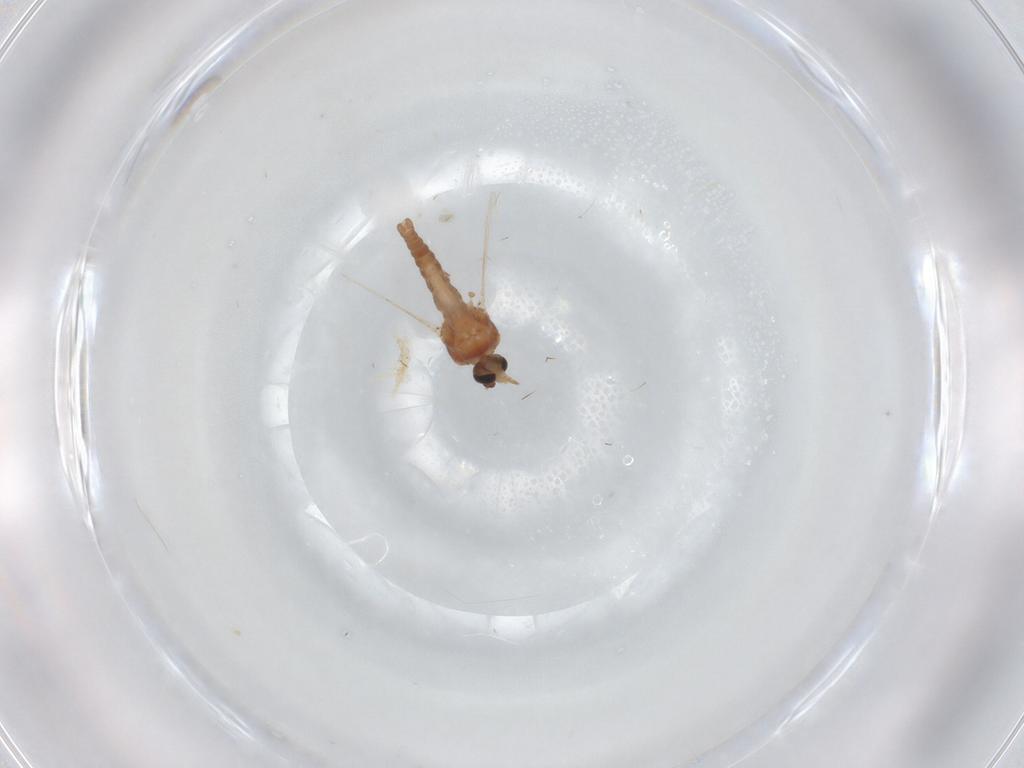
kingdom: Animalia
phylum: Arthropoda
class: Insecta
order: Diptera
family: Ceratopogonidae
